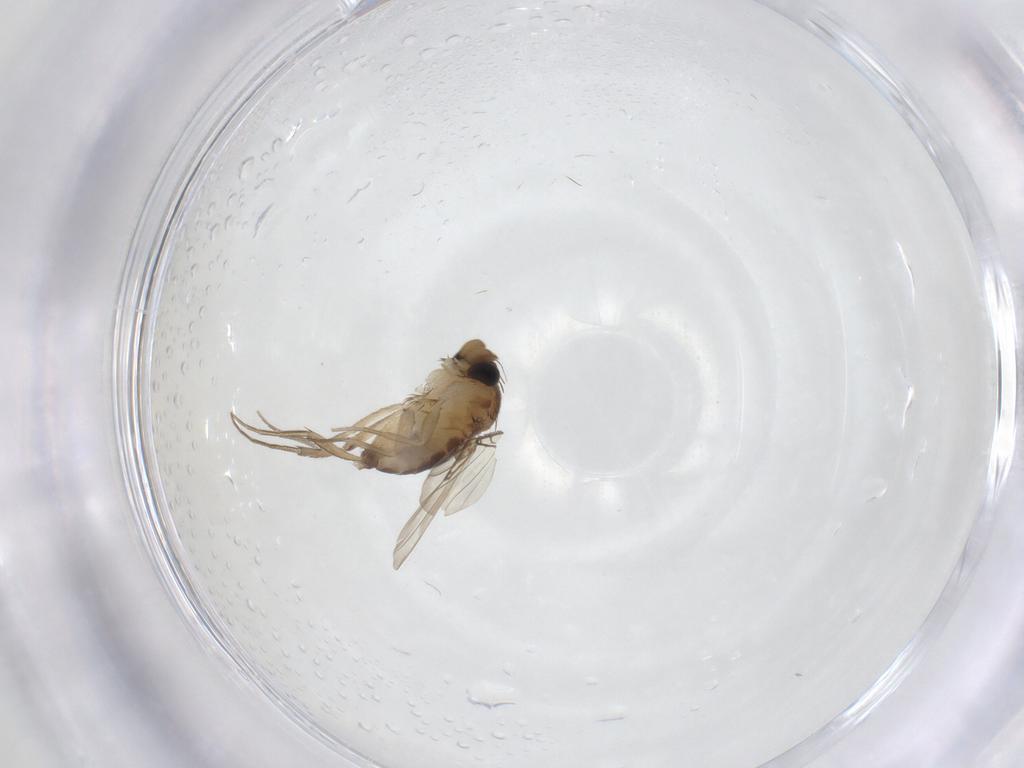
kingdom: Animalia
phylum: Arthropoda
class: Insecta
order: Diptera
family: Phoridae
